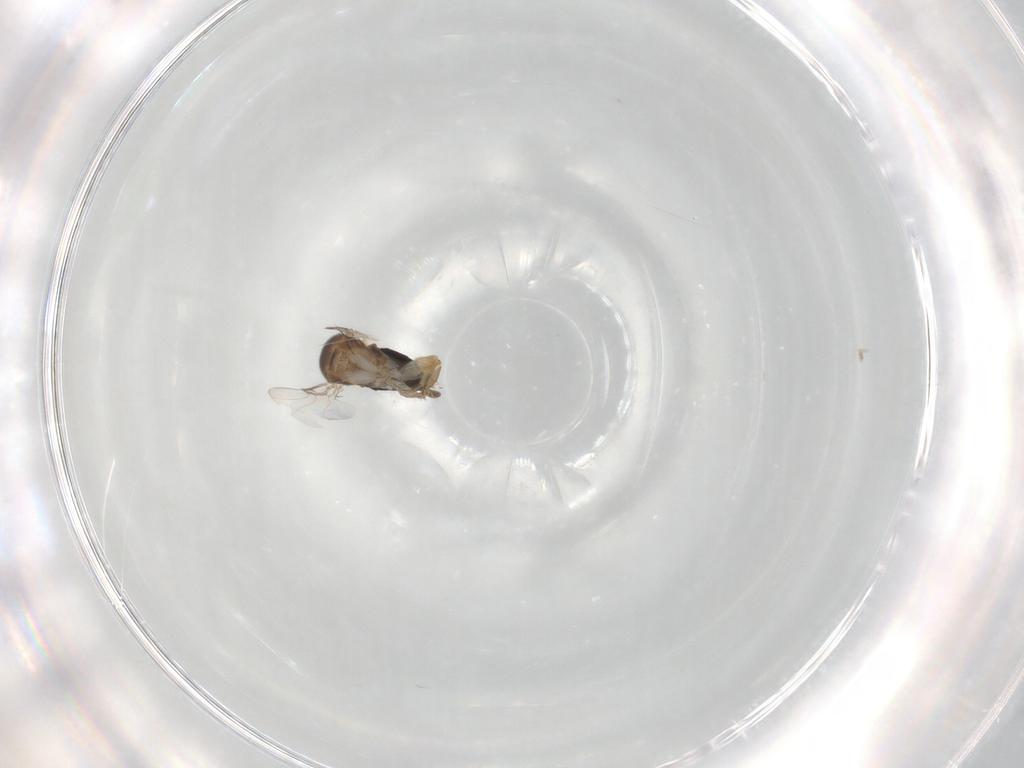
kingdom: Animalia
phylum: Arthropoda
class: Insecta
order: Diptera
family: Phoridae
